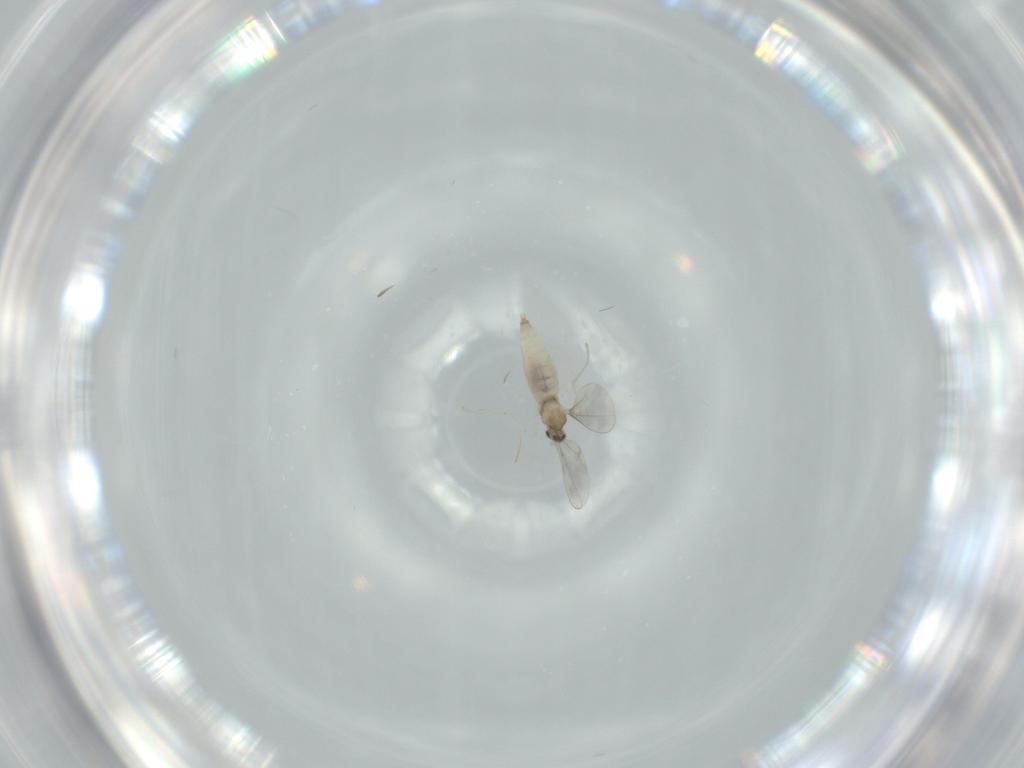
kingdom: Animalia
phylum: Arthropoda
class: Insecta
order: Diptera
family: Cecidomyiidae
